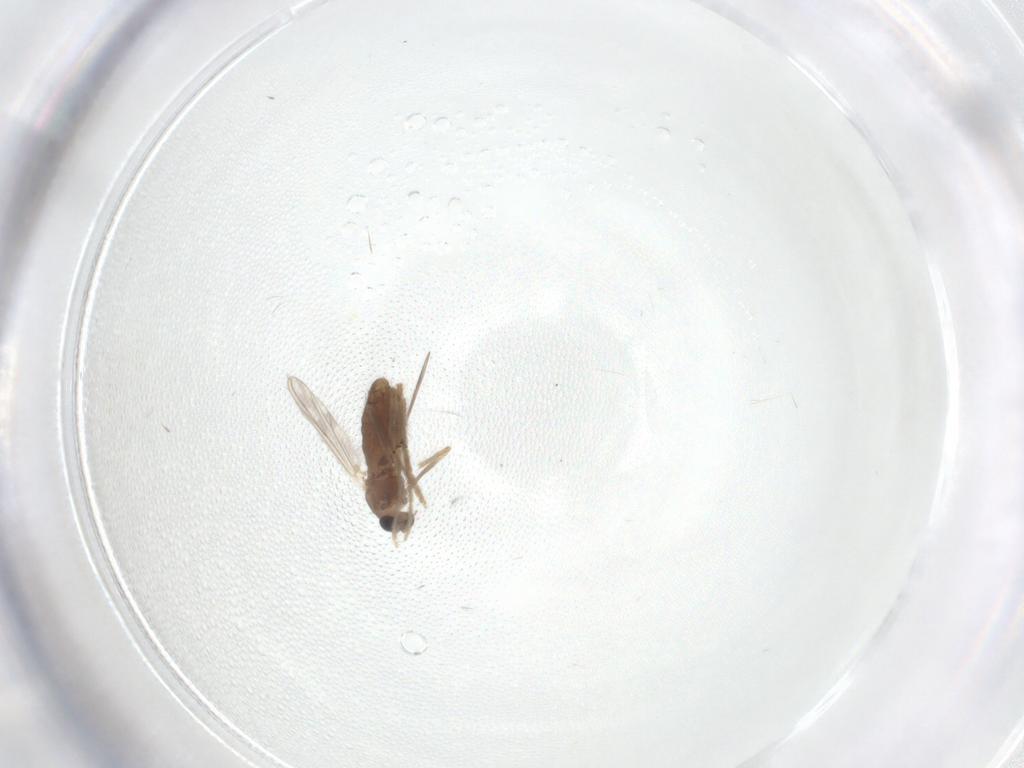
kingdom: Animalia
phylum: Arthropoda
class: Insecta
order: Diptera
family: Chironomidae
